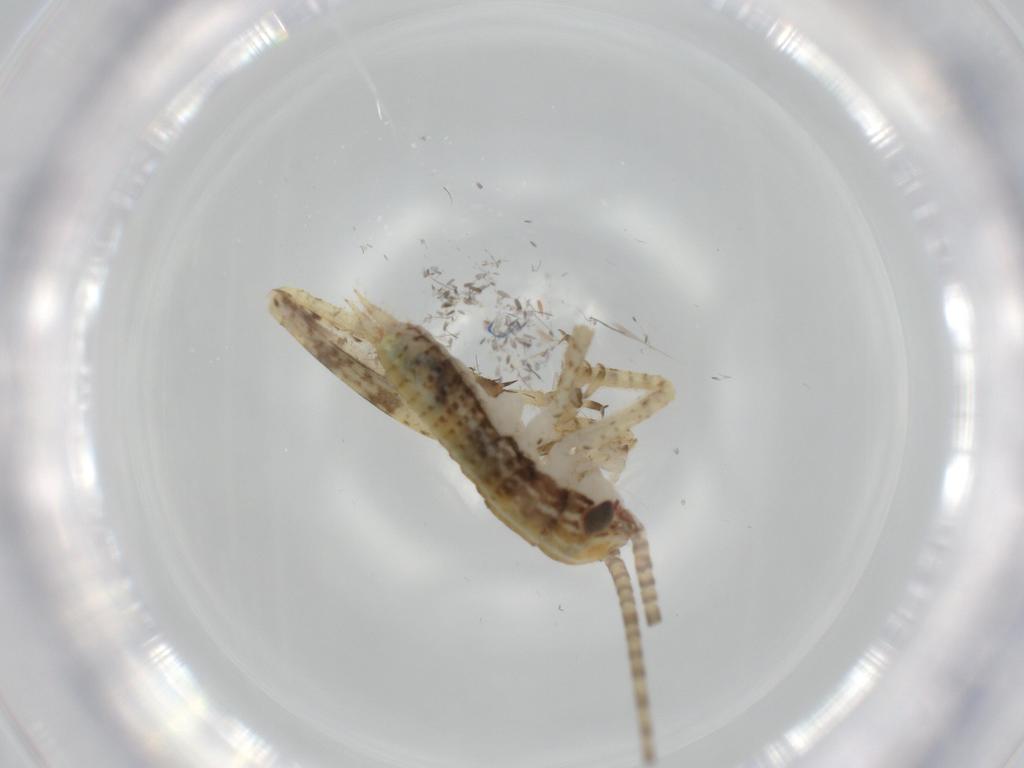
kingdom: Animalia
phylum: Arthropoda
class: Insecta
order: Orthoptera
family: Gryllidae
